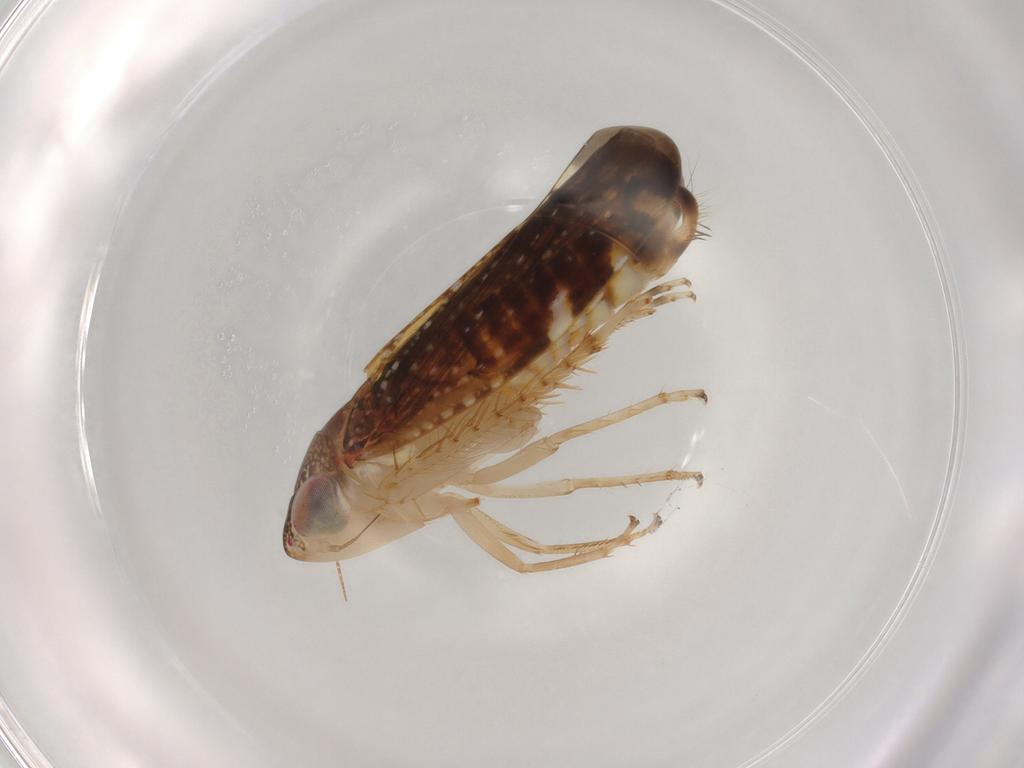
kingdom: Animalia
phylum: Arthropoda
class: Insecta
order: Hemiptera
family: Cicadellidae
